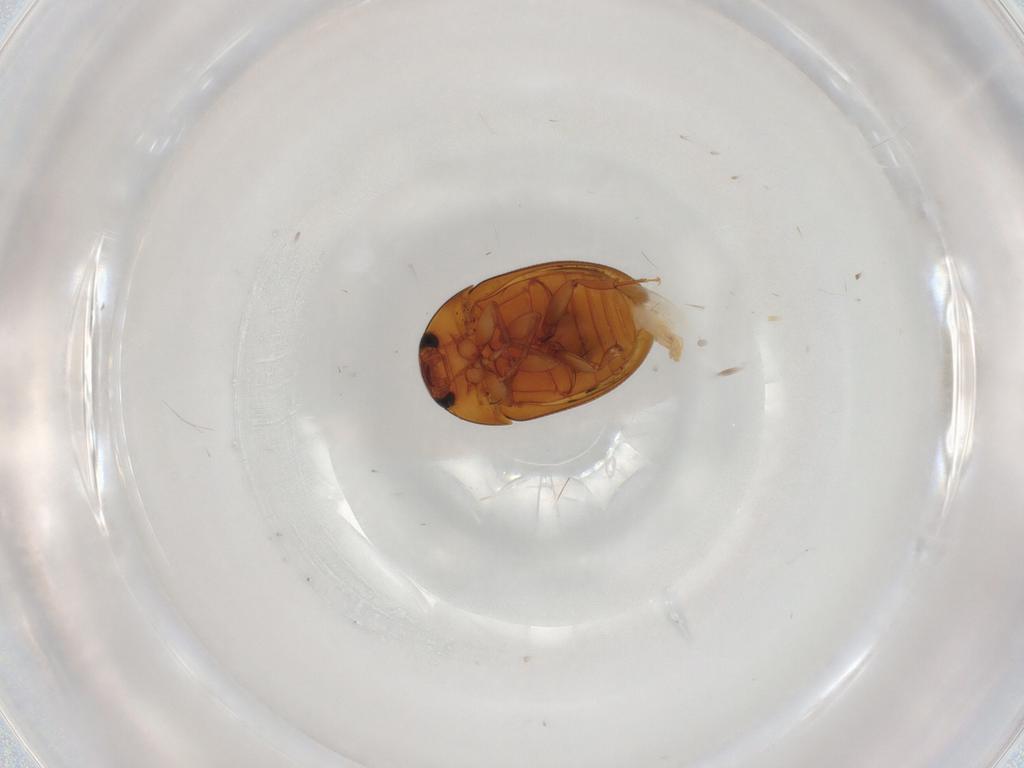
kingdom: Animalia
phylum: Arthropoda
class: Insecta
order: Coleoptera
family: Phalacridae
